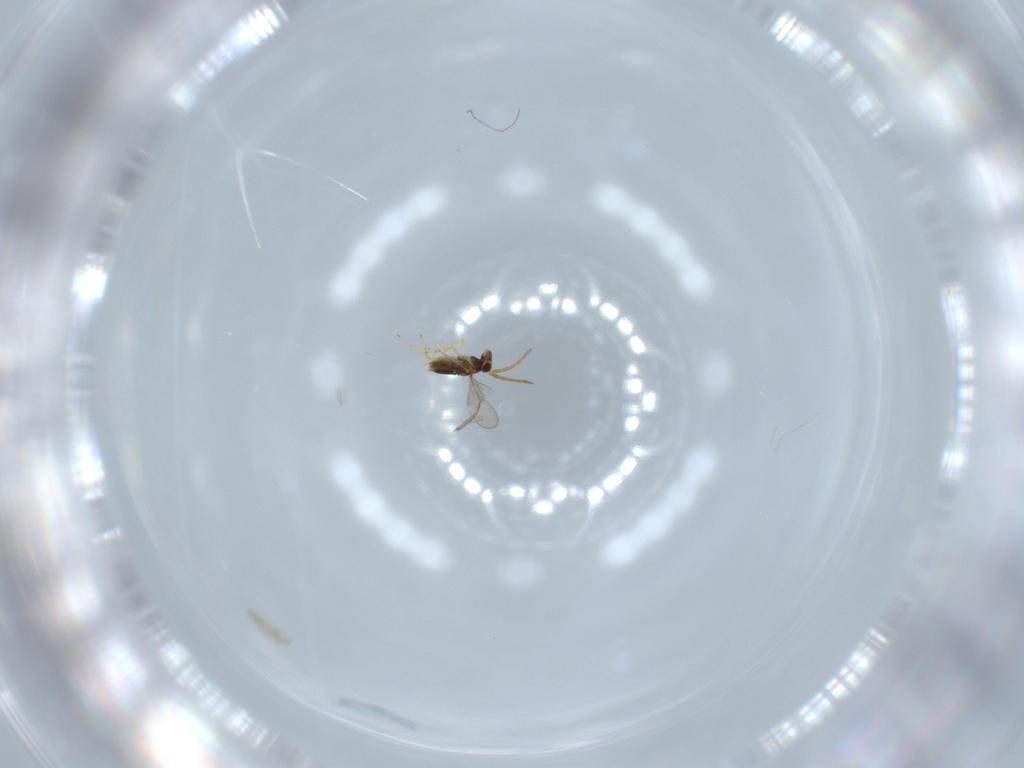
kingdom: Animalia
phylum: Arthropoda
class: Insecta
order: Hymenoptera
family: Aphelinidae
